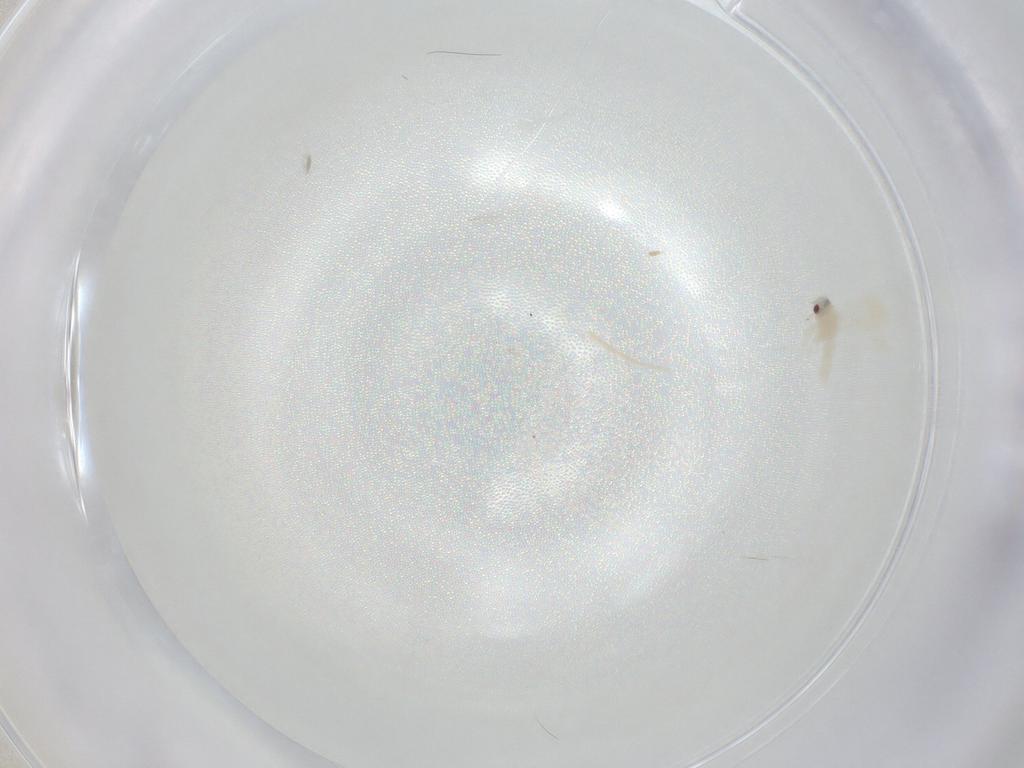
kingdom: Animalia
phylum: Arthropoda
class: Insecta
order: Hemiptera
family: Aleyrodidae
